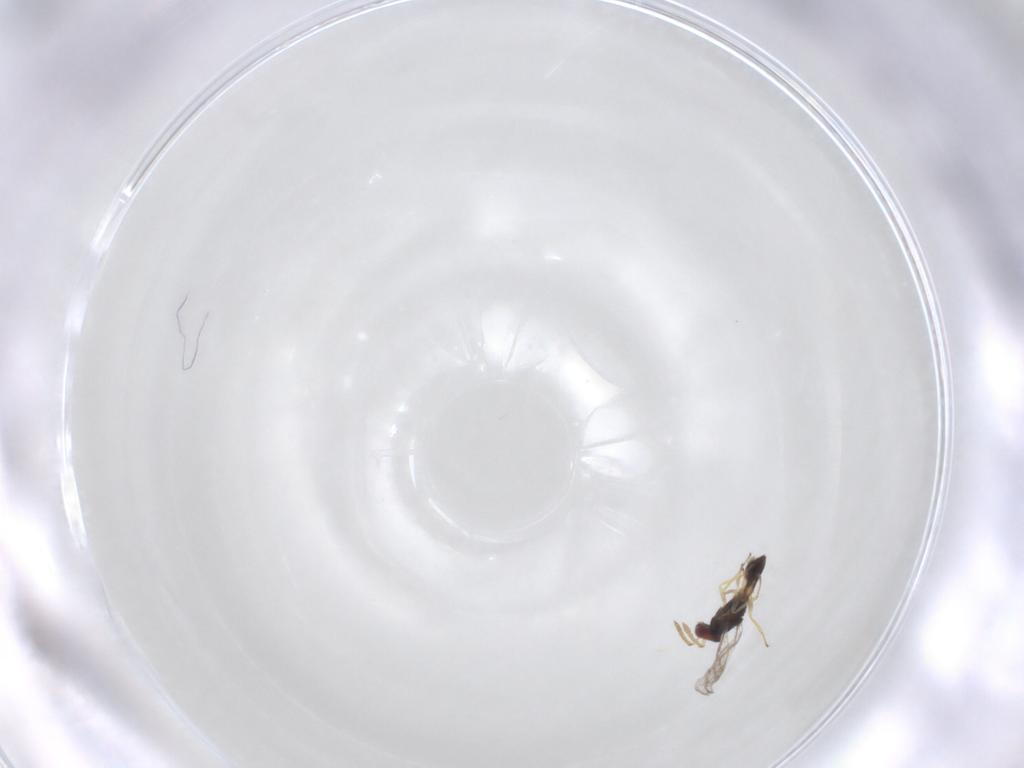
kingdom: Animalia
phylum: Arthropoda
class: Insecta
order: Hymenoptera
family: Eulophidae
